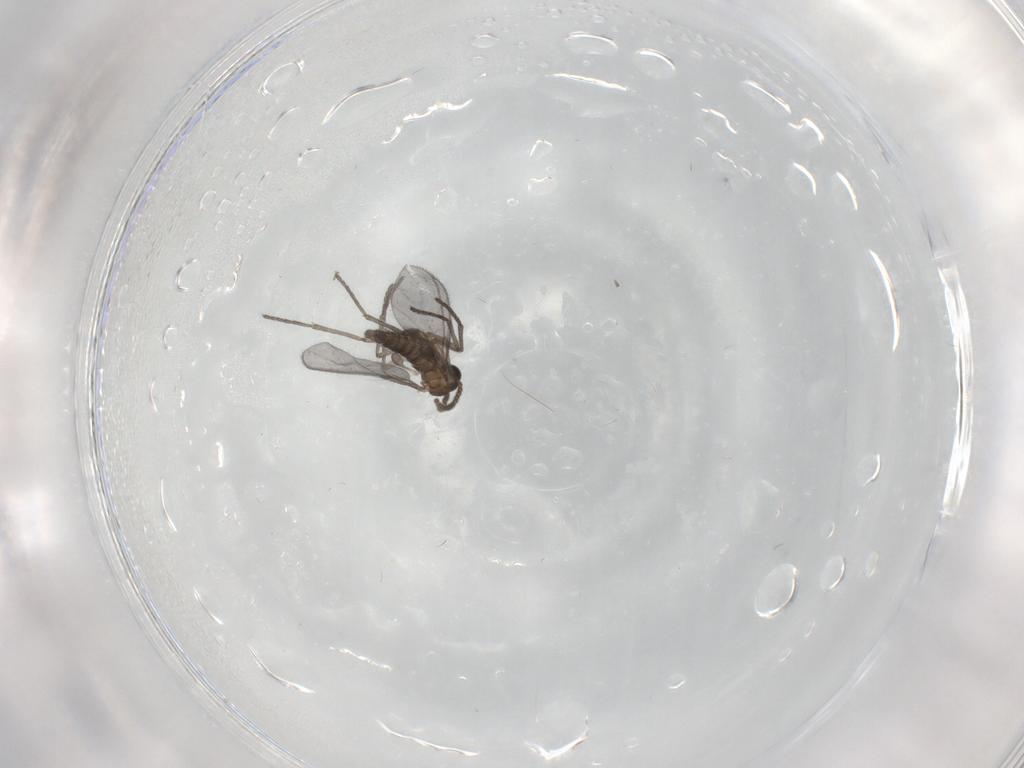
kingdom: Animalia
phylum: Arthropoda
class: Insecta
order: Diptera
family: Sciaridae
